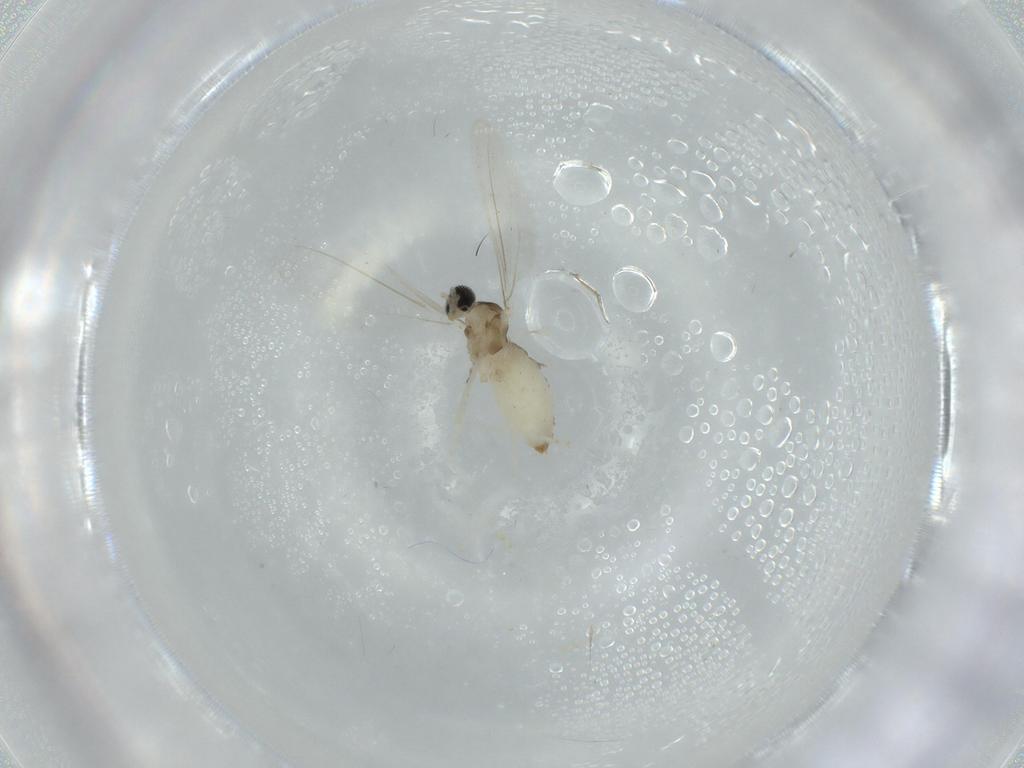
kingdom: Animalia
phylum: Arthropoda
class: Insecta
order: Diptera
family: Cecidomyiidae
